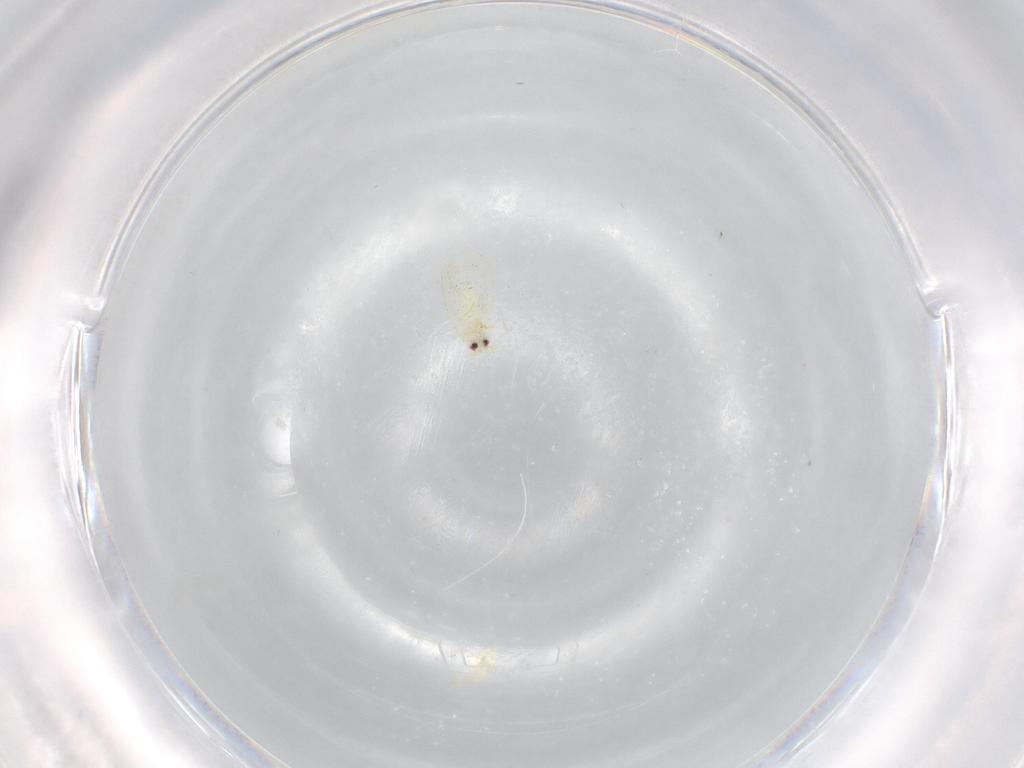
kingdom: Animalia
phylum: Arthropoda
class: Insecta
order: Hemiptera
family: Aleyrodidae
